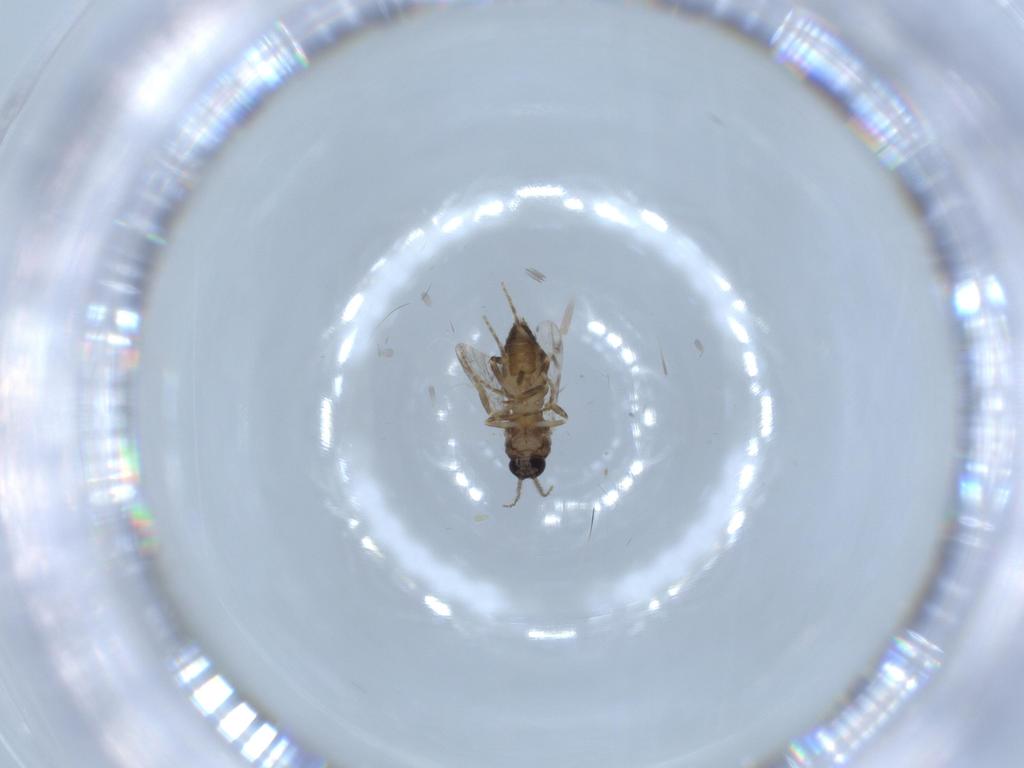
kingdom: Animalia
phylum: Arthropoda
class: Insecta
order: Diptera
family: Ceratopogonidae
